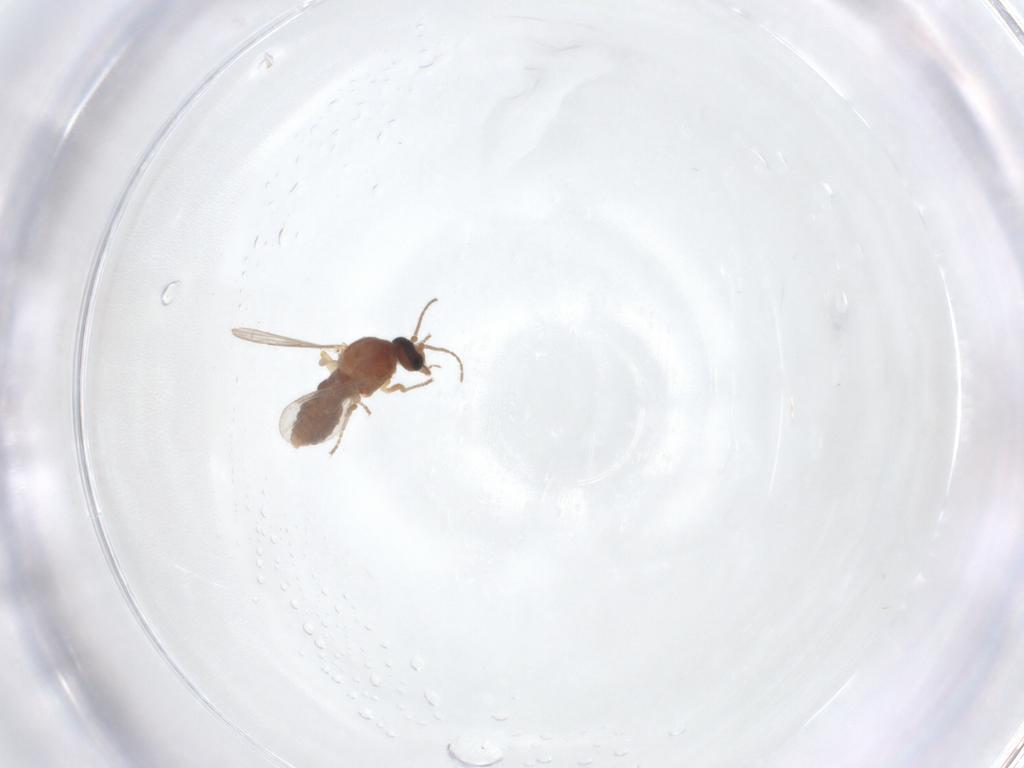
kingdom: Animalia
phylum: Arthropoda
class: Insecta
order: Diptera
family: Ceratopogonidae
